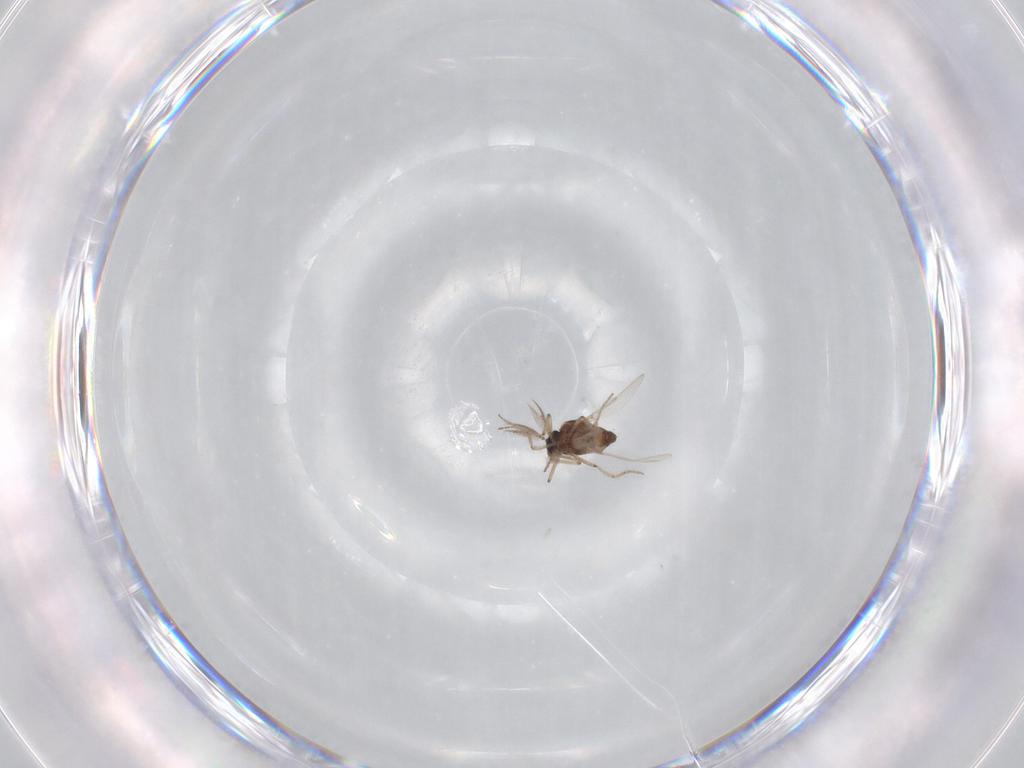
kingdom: Animalia
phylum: Arthropoda
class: Insecta
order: Diptera
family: Ceratopogonidae
